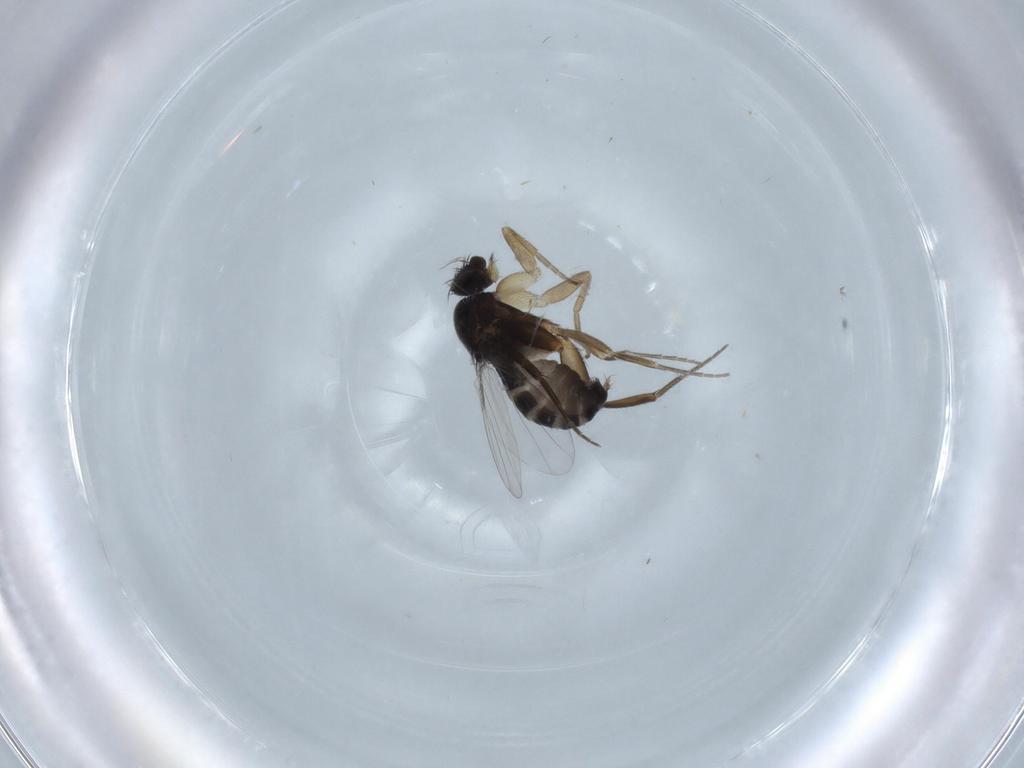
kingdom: Animalia
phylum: Arthropoda
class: Insecta
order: Diptera
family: Phoridae
